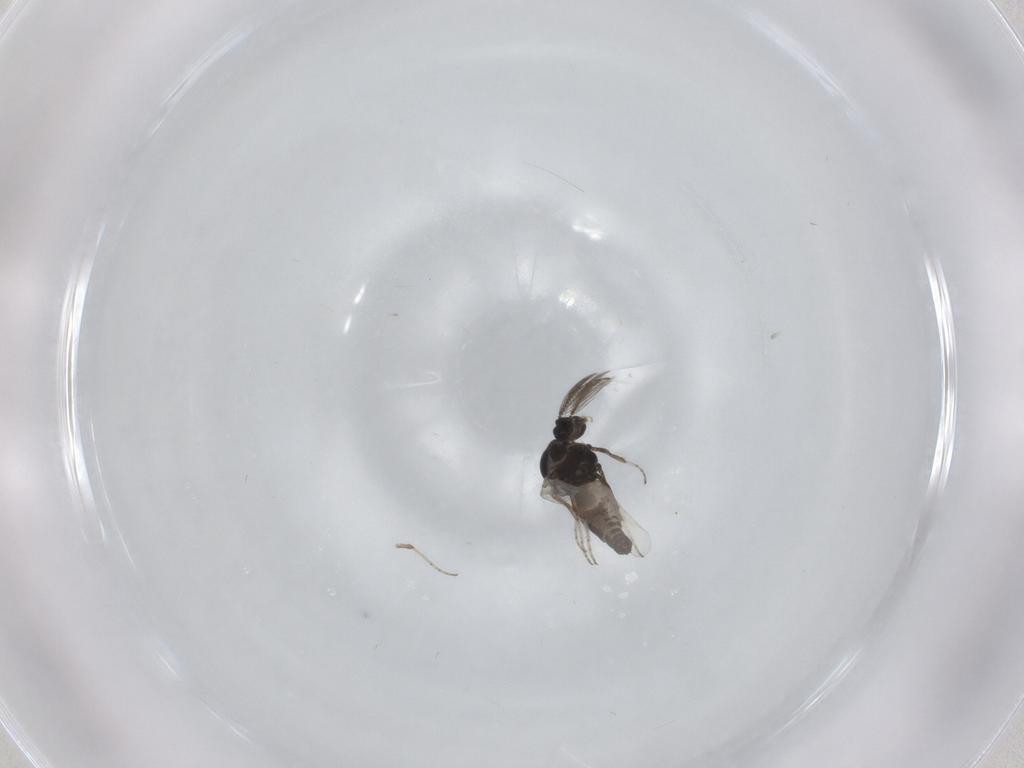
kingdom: Animalia
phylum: Arthropoda
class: Insecta
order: Diptera
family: Ceratopogonidae
